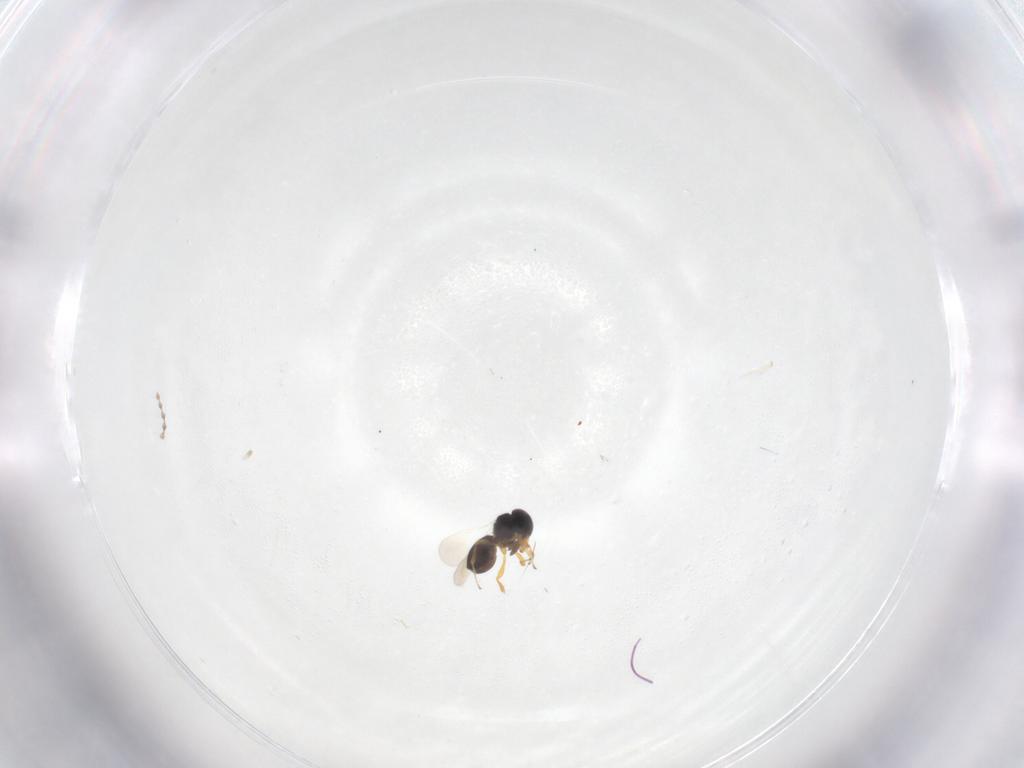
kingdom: Animalia
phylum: Arthropoda
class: Insecta
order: Hymenoptera
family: Platygastridae
